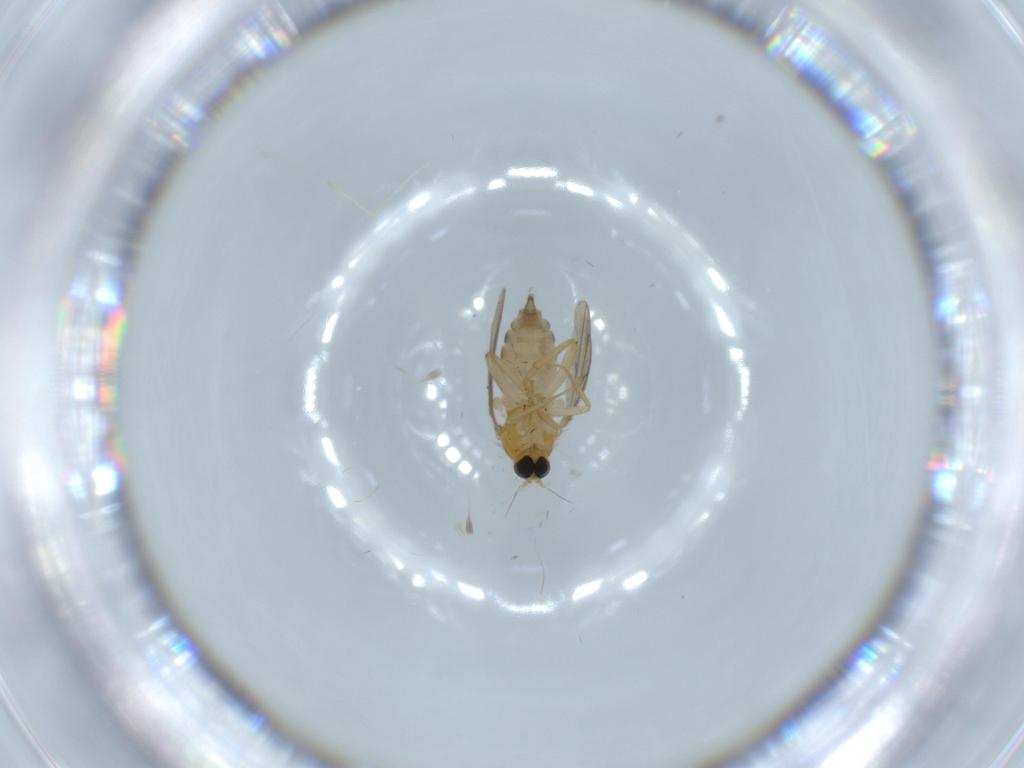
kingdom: Animalia
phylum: Arthropoda
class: Insecta
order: Diptera
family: Cecidomyiidae
